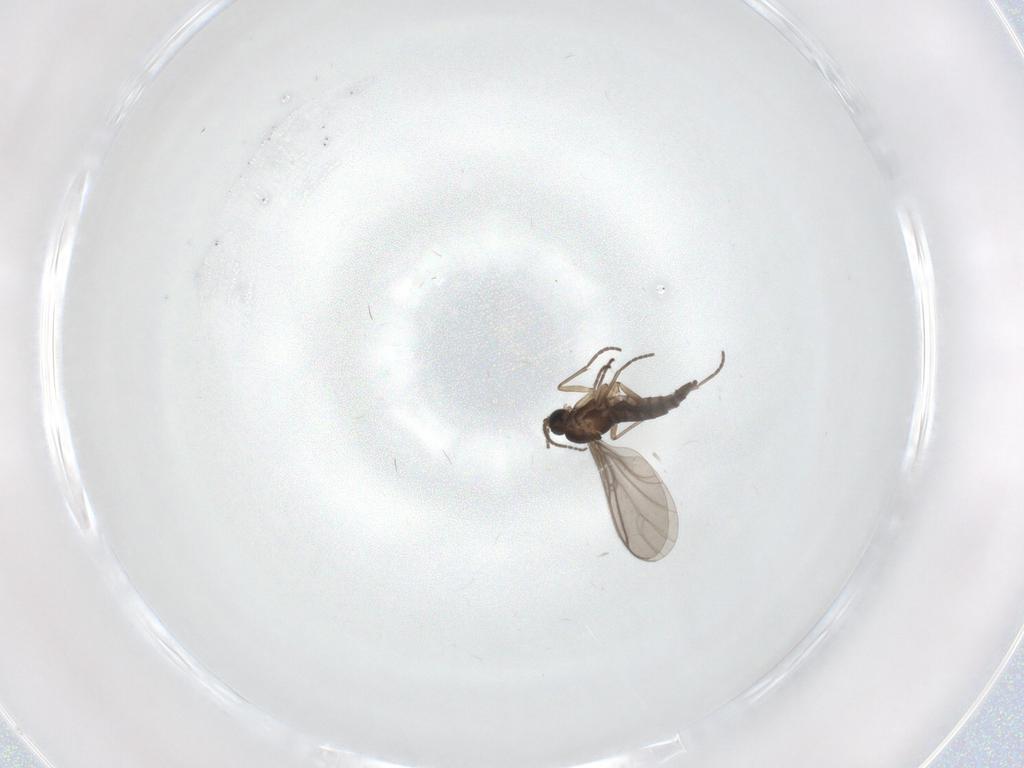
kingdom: Animalia
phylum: Arthropoda
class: Insecta
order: Diptera
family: Sciaridae
